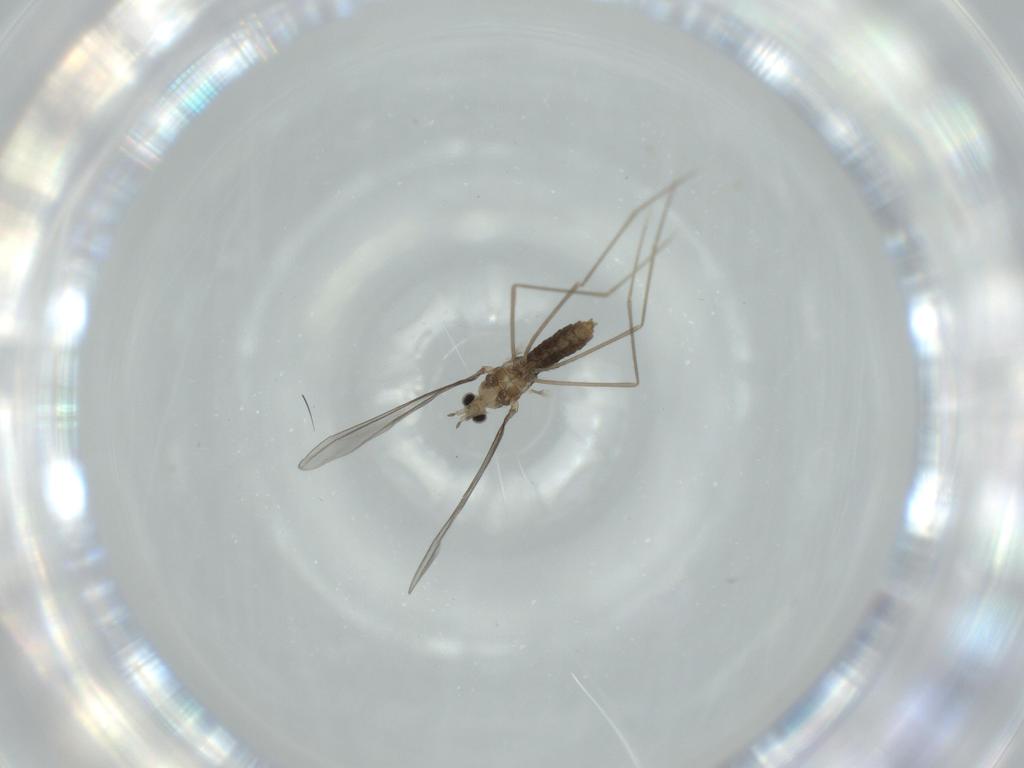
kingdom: Animalia
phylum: Arthropoda
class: Insecta
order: Diptera
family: Cecidomyiidae
